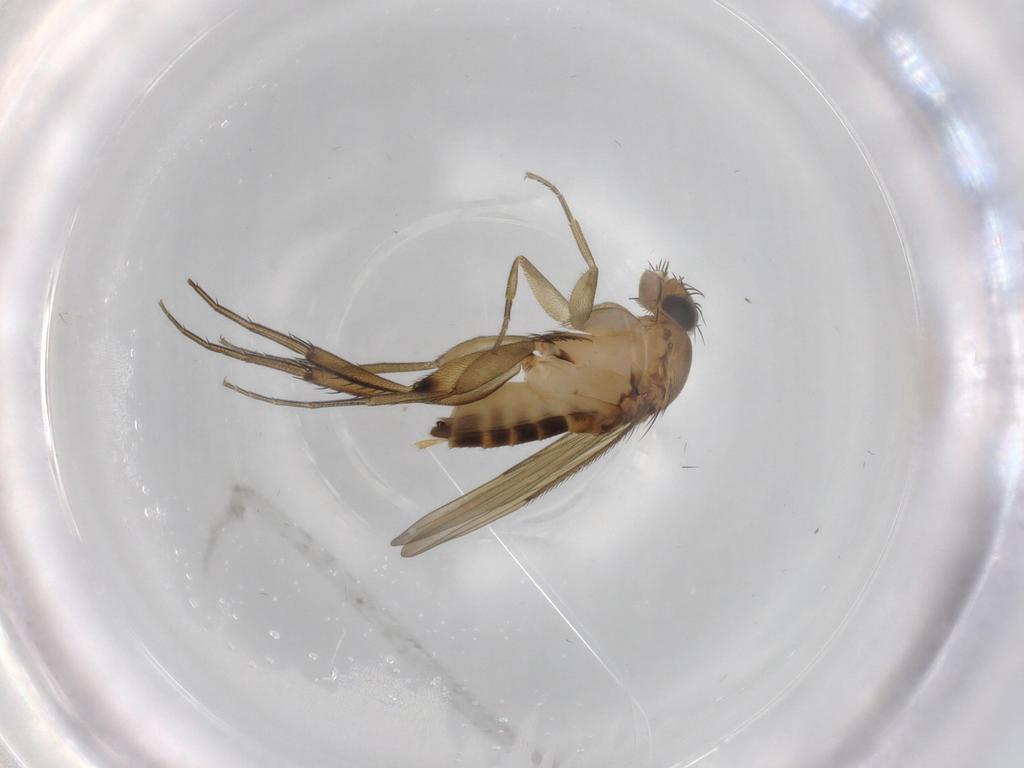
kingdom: Animalia
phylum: Arthropoda
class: Insecta
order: Diptera
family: Phoridae
